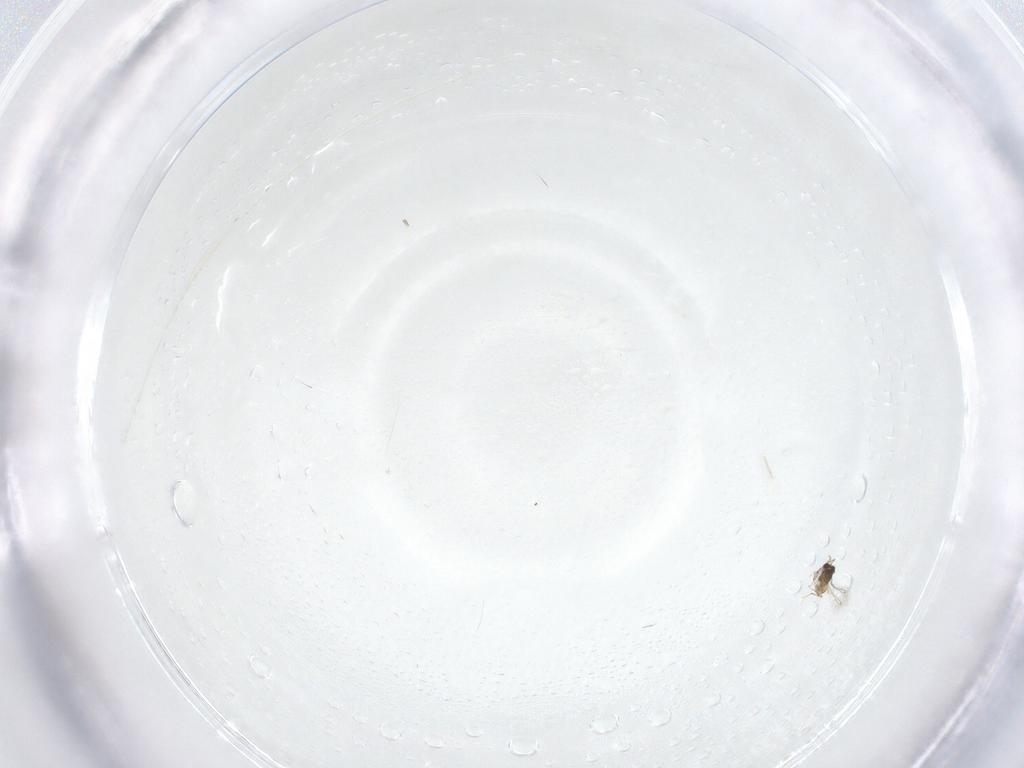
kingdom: Animalia
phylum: Arthropoda
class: Insecta
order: Hymenoptera
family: Mymaridae
